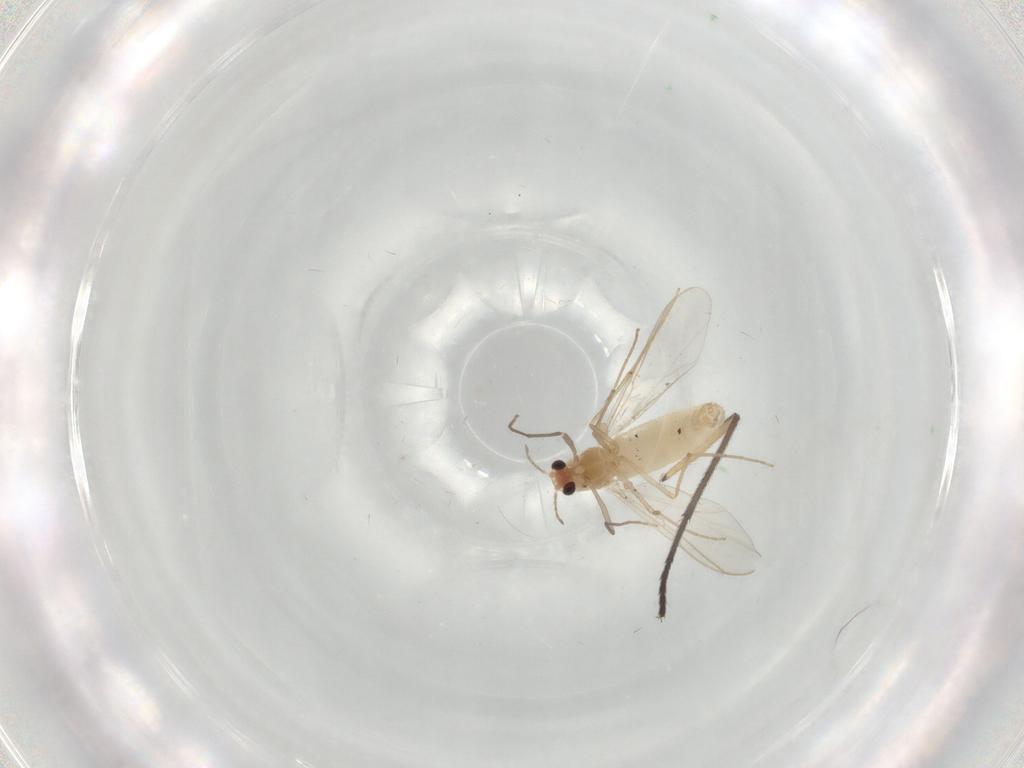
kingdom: Animalia
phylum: Arthropoda
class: Insecta
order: Diptera
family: Sciaridae
